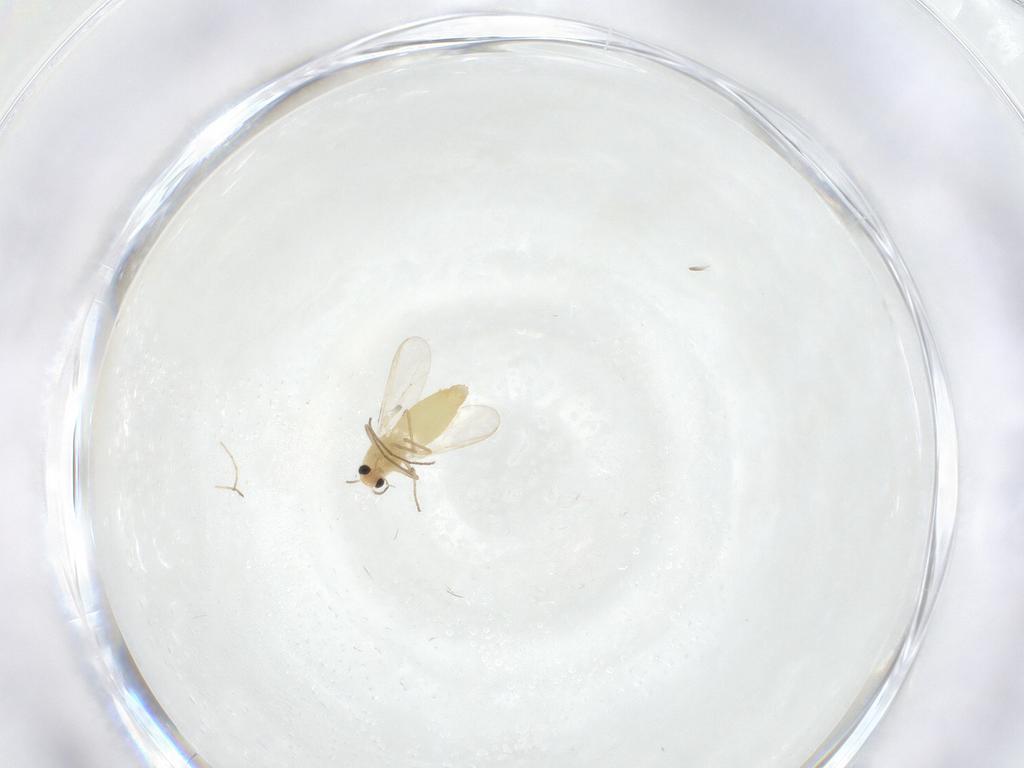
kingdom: Animalia
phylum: Arthropoda
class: Insecta
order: Diptera
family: Chironomidae
